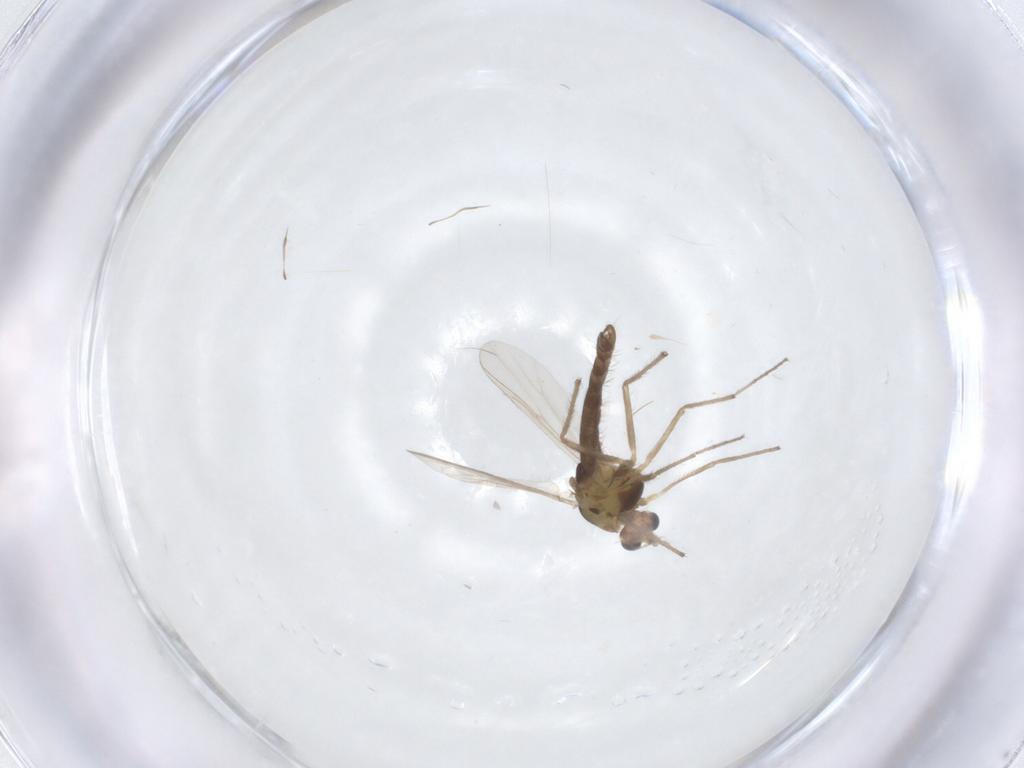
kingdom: Animalia
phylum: Arthropoda
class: Insecta
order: Diptera
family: Chironomidae
